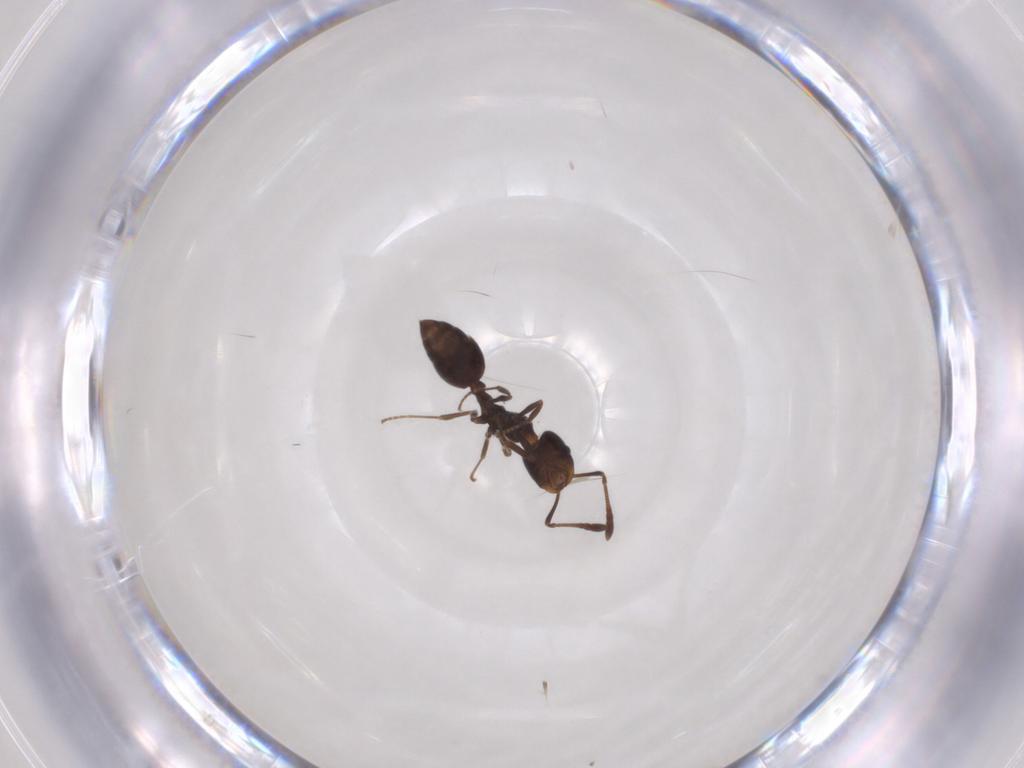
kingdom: Animalia
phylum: Arthropoda
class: Insecta
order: Hymenoptera
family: Formicidae
